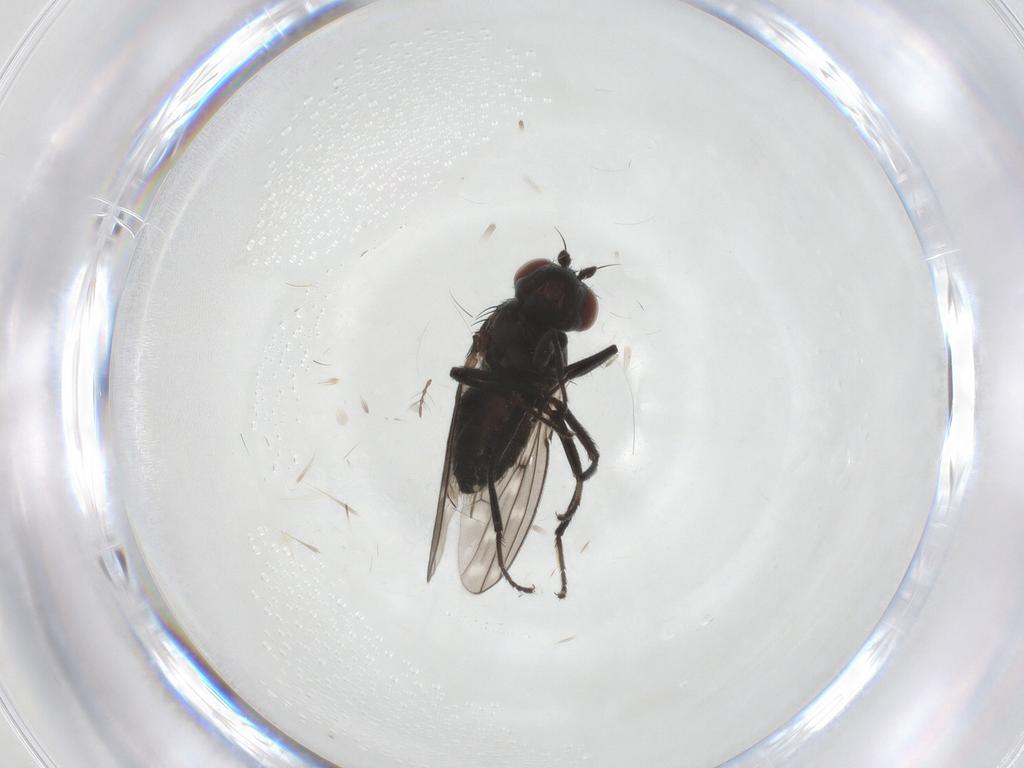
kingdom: Animalia
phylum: Arthropoda
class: Insecta
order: Diptera
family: Ephydridae
